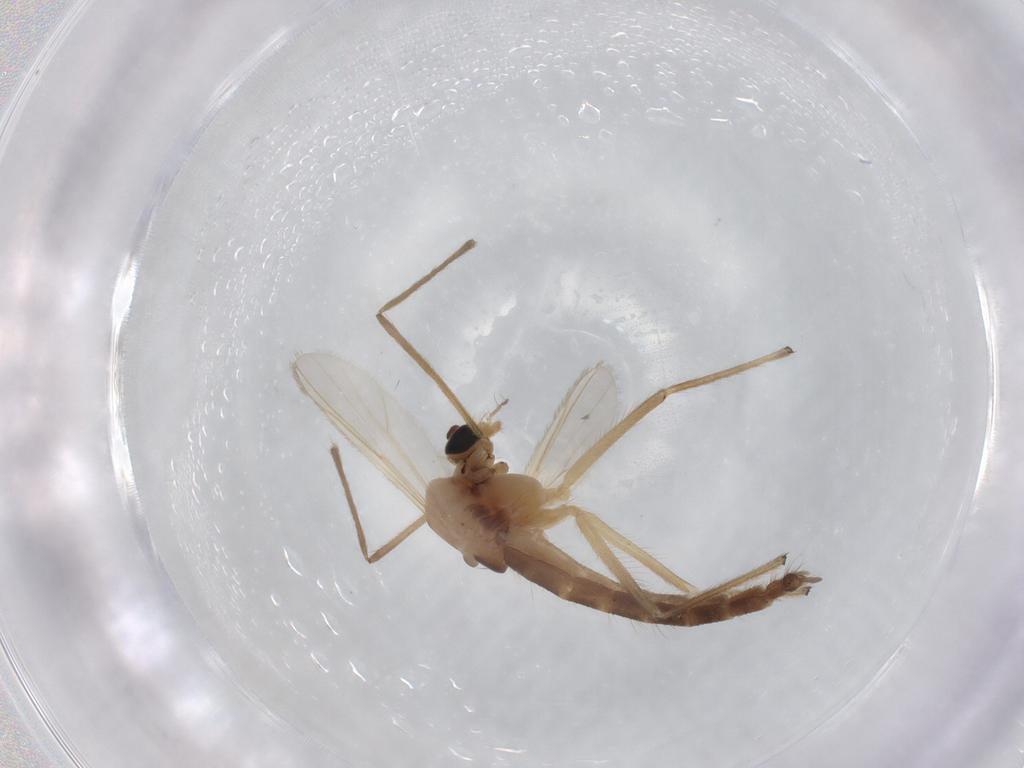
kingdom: Animalia
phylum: Arthropoda
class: Insecta
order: Diptera
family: Chironomidae
